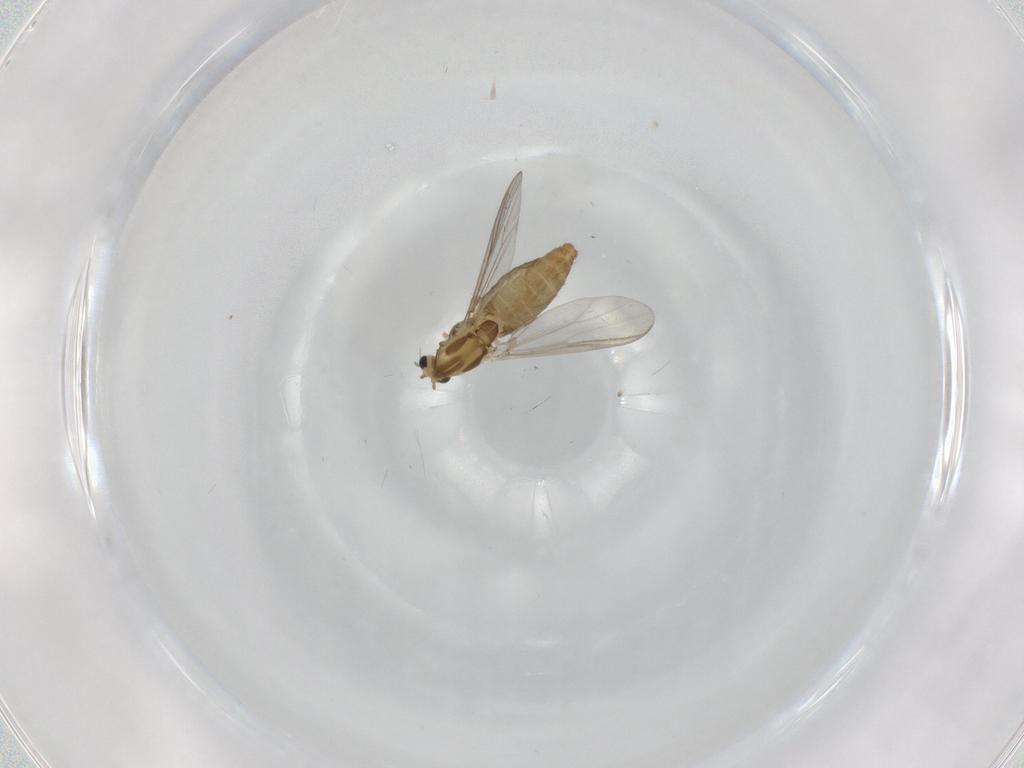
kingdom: Animalia
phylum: Arthropoda
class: Insecta
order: Diptera
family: Chironomidae
